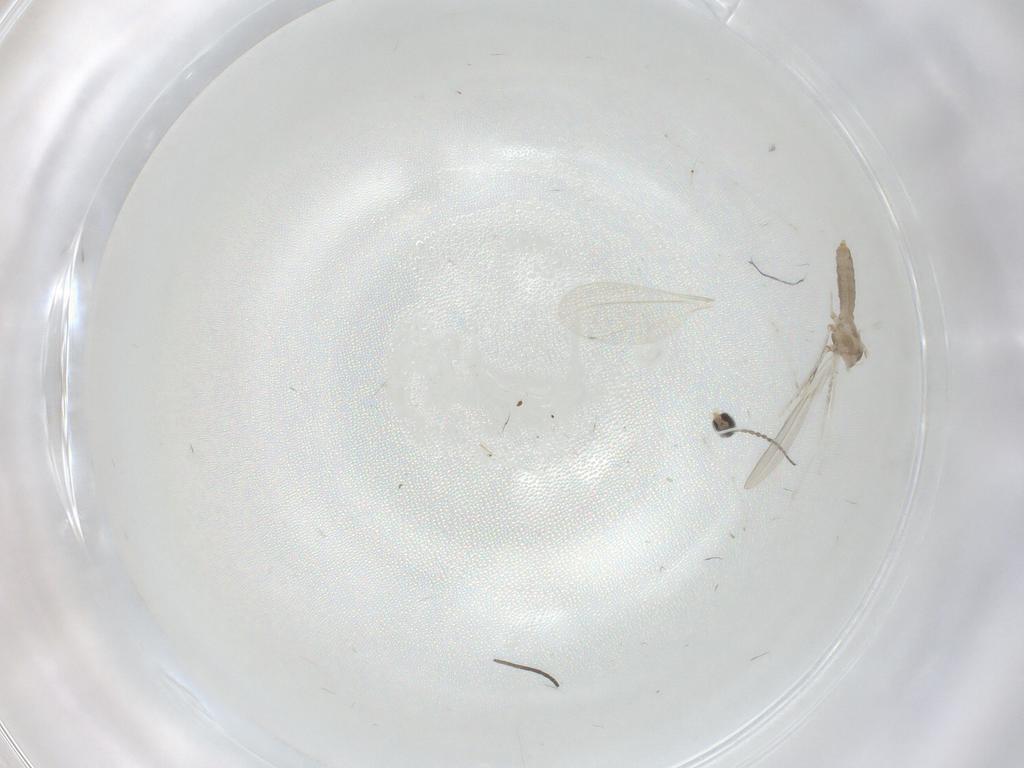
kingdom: Animalia
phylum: Arthropoda
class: Insecta
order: Diptera
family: Cecidomyiidae
